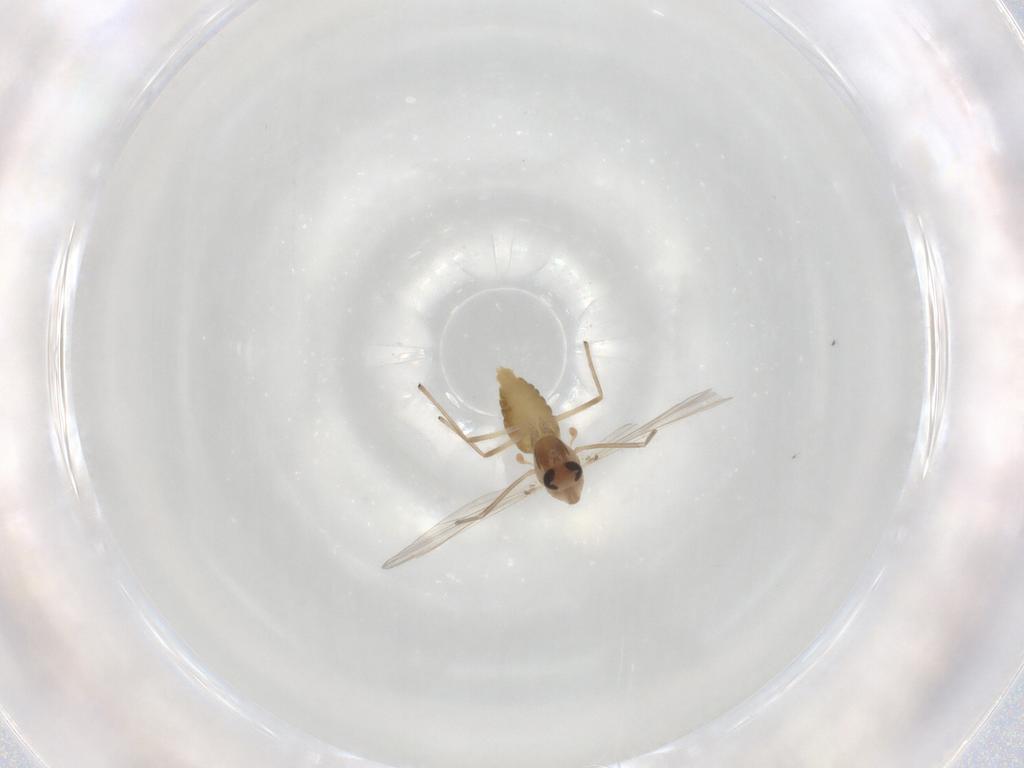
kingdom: Animalia
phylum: Arthropoda
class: Insecta
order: Diptera
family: Chironomidae
